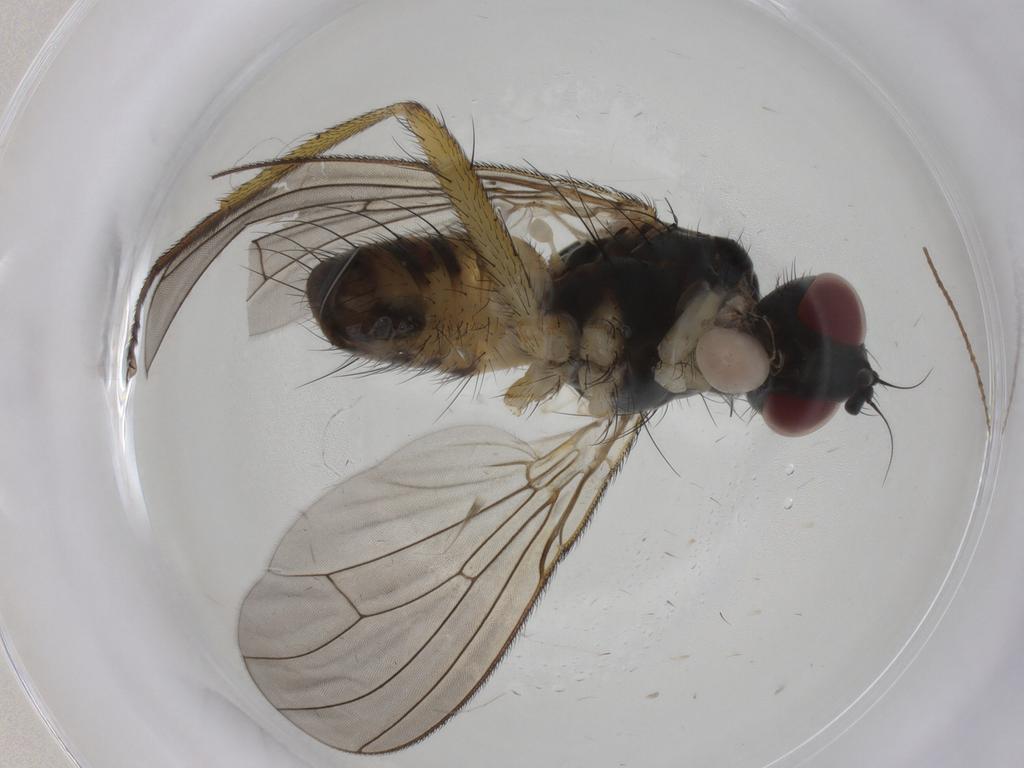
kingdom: Animalia
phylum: Arthropoda
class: Insecta
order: Diptera
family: Muscidae
